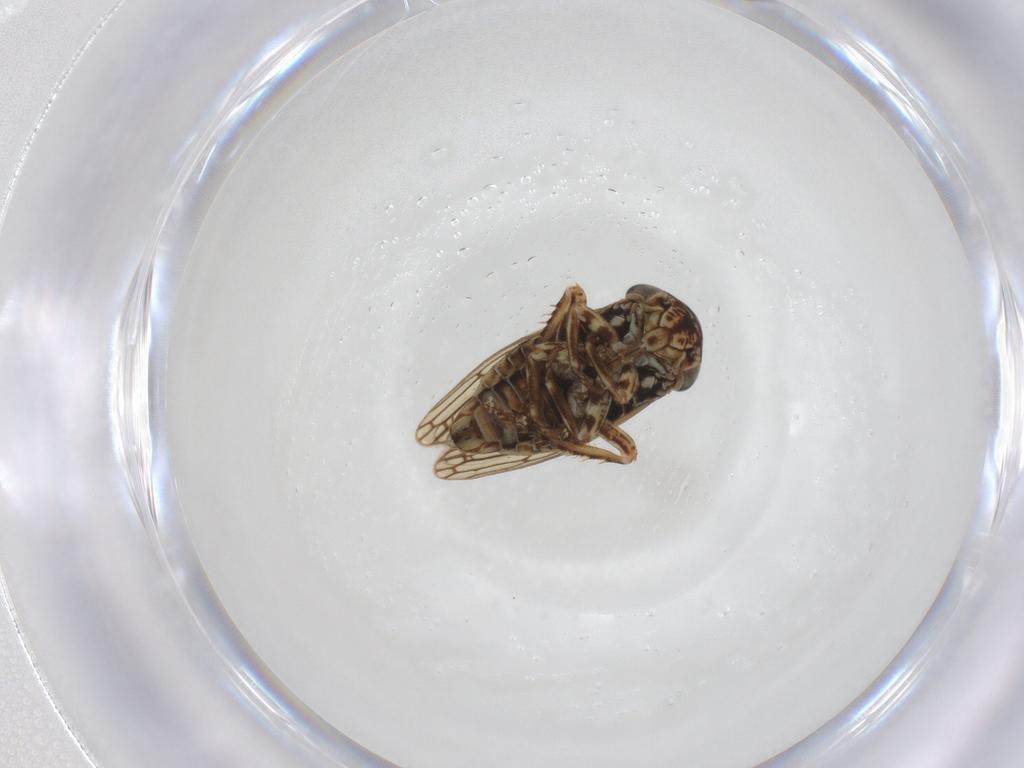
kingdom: Animalia
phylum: Arthropoda
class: Insecta
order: Hemiptera
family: Cicadellidae
